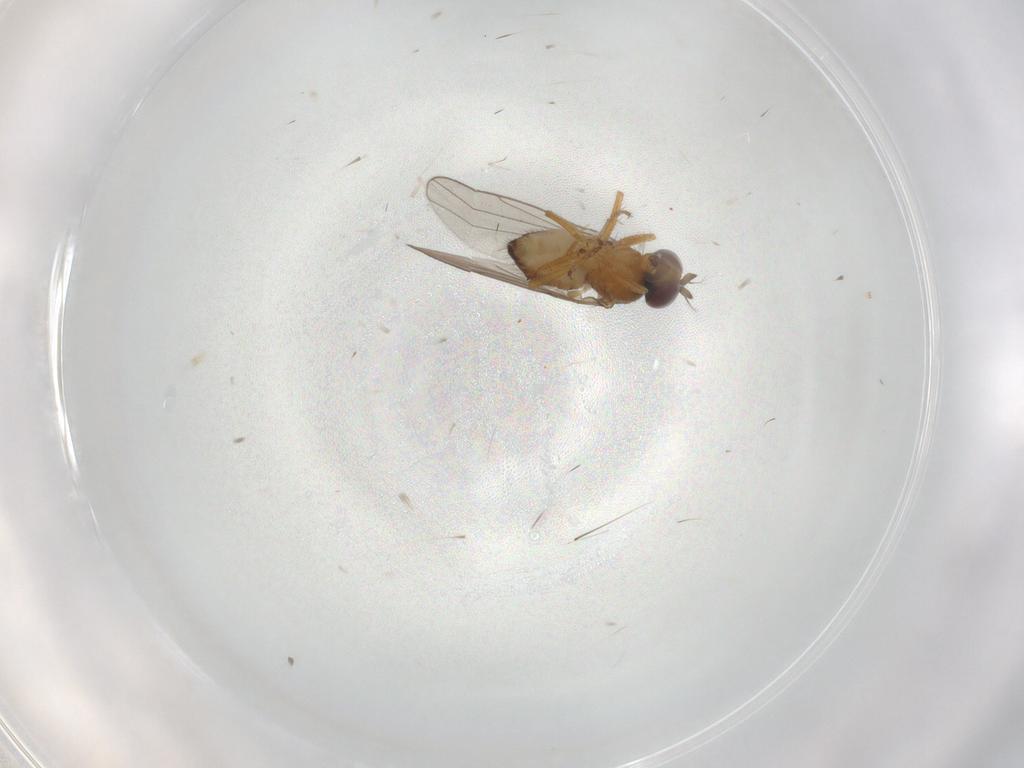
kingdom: Animalia
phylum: Arthropoda
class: Insecta
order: Diptera
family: Ephydridae
